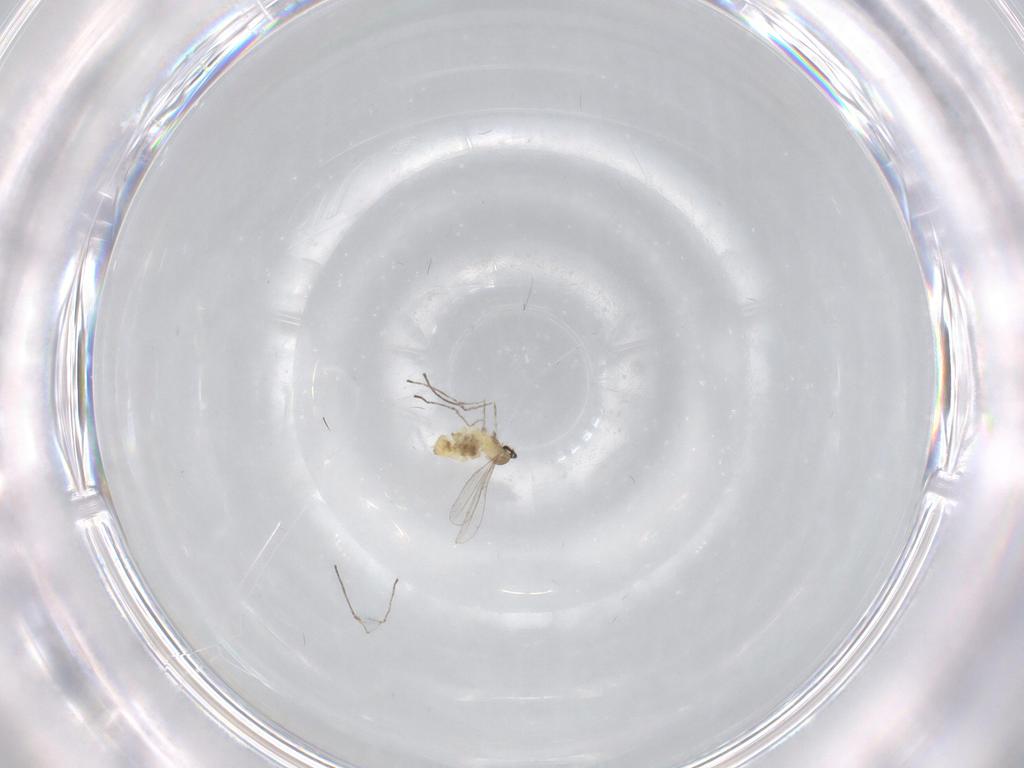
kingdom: Animalia
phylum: Arthropoda
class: Insecta
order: Diptera
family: Cecidomyiidae
